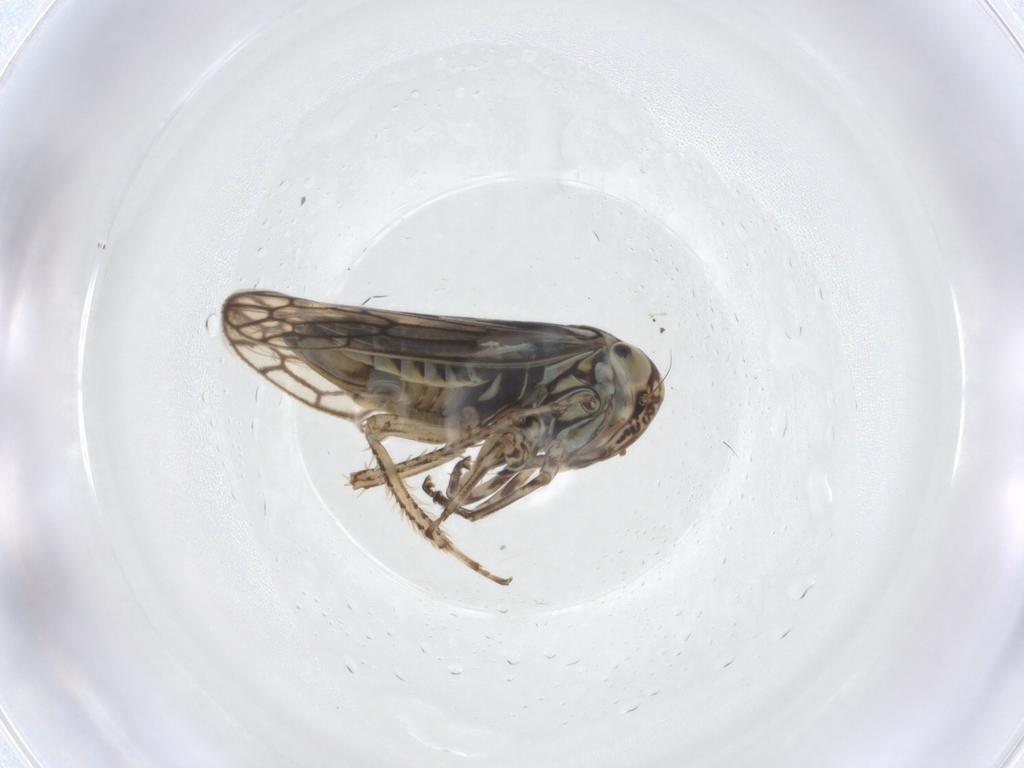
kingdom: Animalia
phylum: Arthropoda
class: Insecta
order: Hemiptera
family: Cicadellidae
